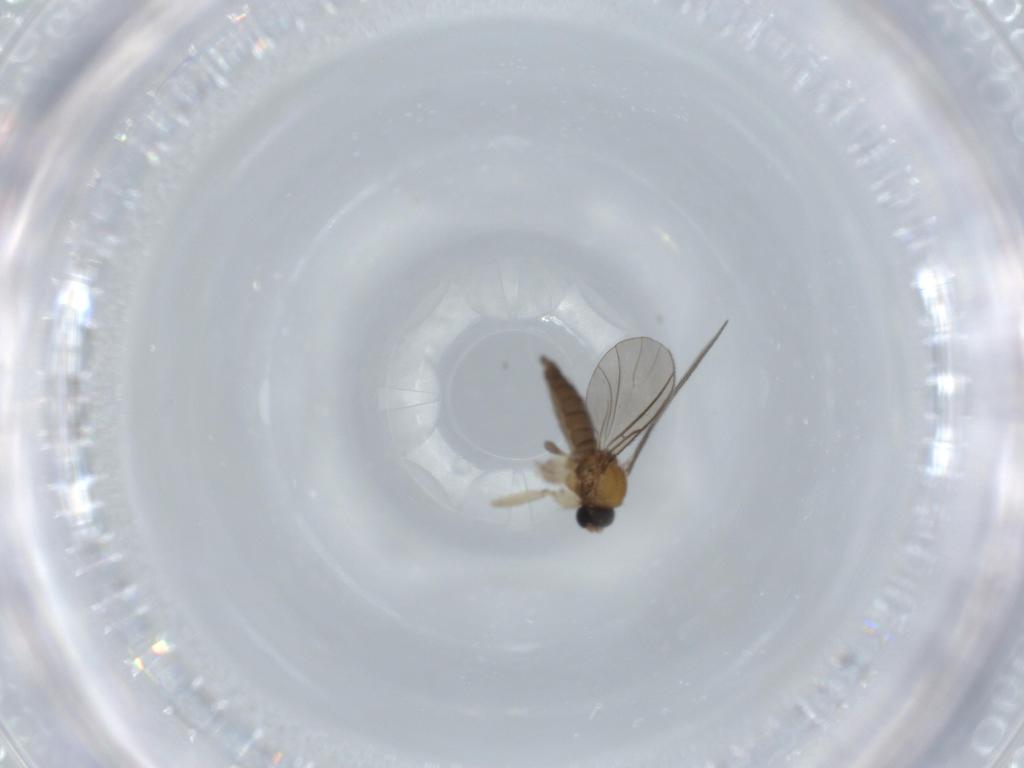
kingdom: Animalia
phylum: Arthropoda
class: Insecta
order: Diptera
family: Sciaridae
